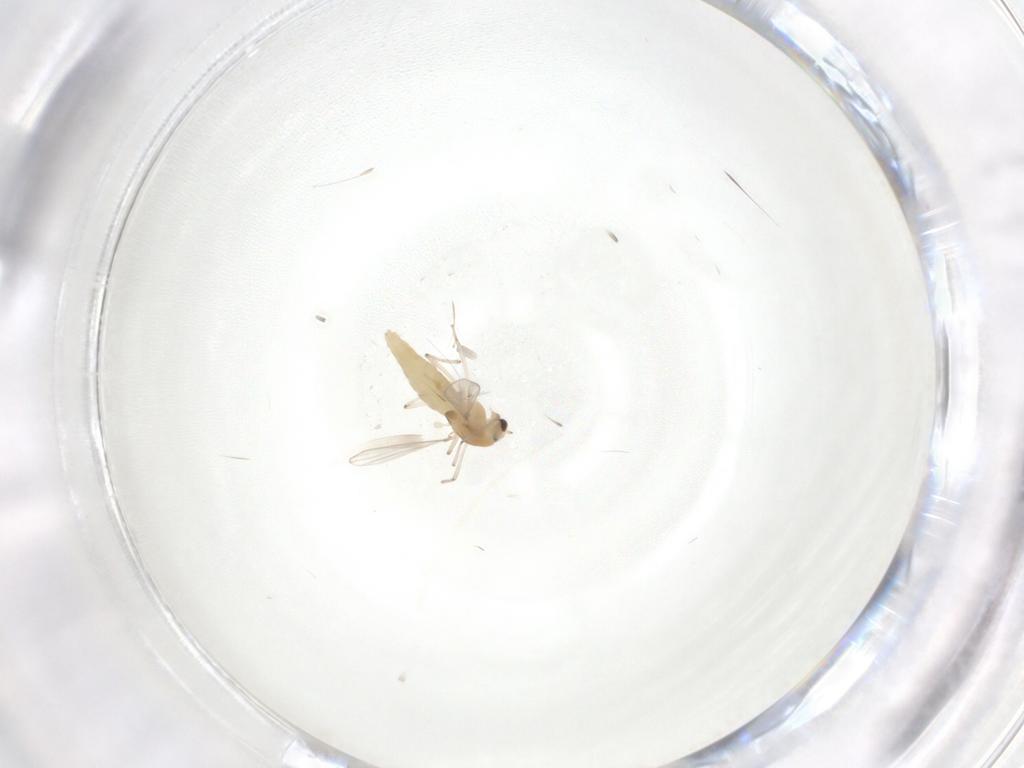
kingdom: Animalia
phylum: Arthropoda
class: Insecta
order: Diptera
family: Chironomidae
